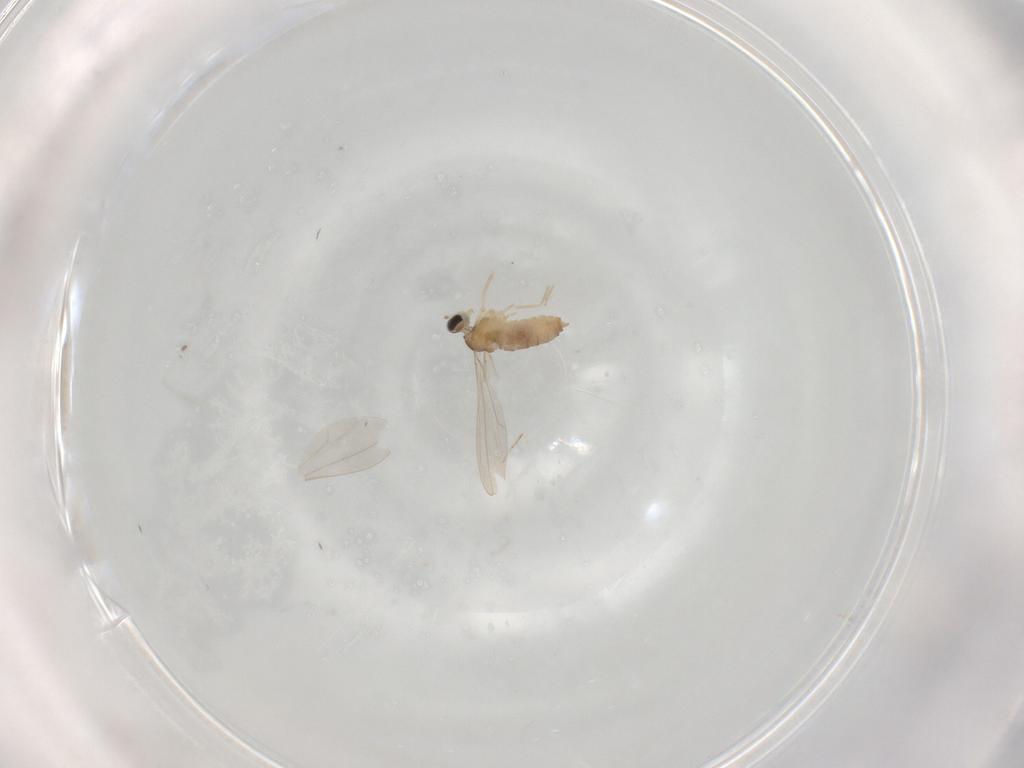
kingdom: Animalia
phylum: Arthropoda
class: Insecta
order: Diptera
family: Cecidomyiidae
